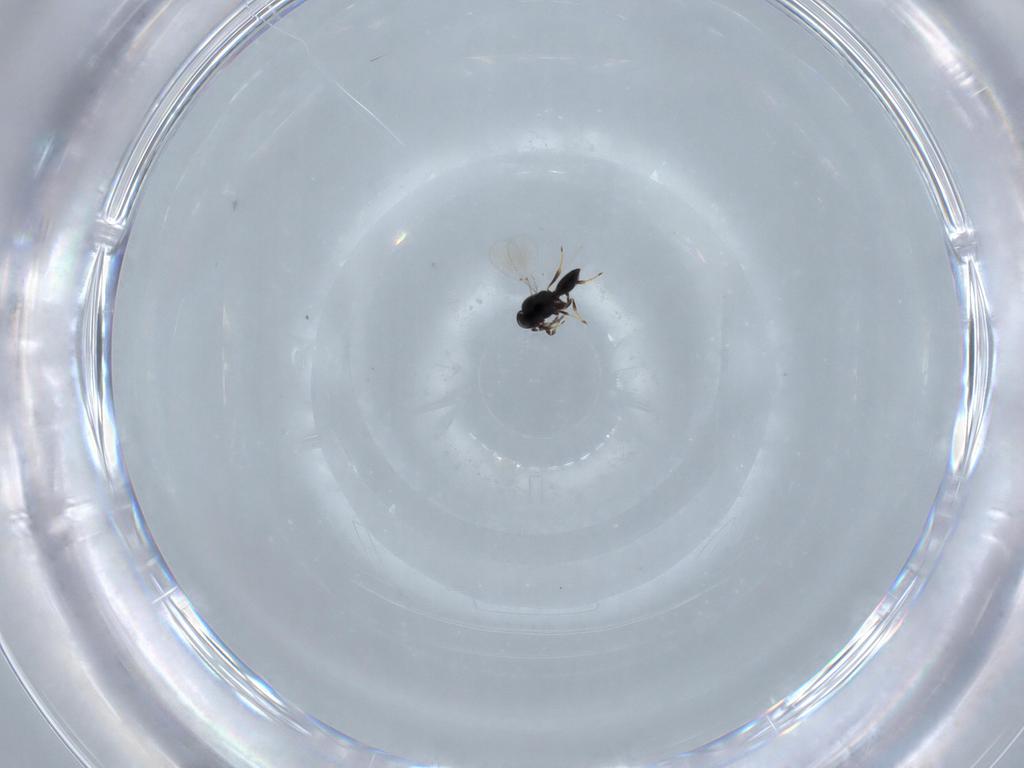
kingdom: Animalia
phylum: Arthropoda
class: Insecta
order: Hymenoptera
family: Platygastridae
